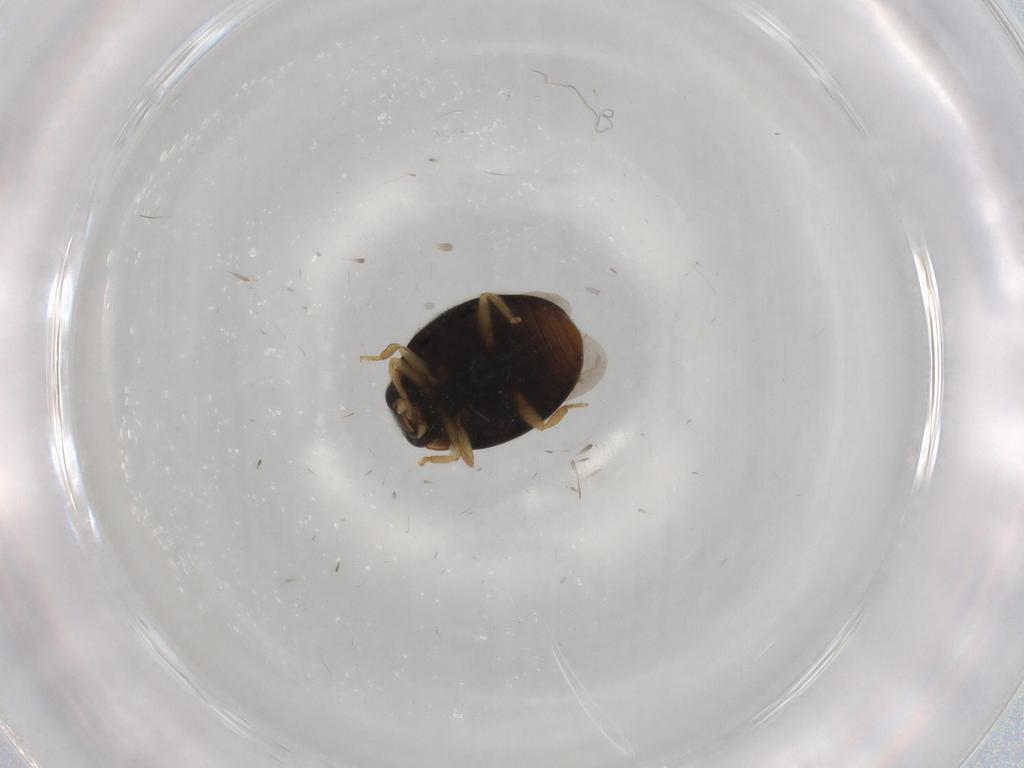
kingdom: Animalia
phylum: Arthropoda
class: Insecta
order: Coleoptera
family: Coccinellidae
